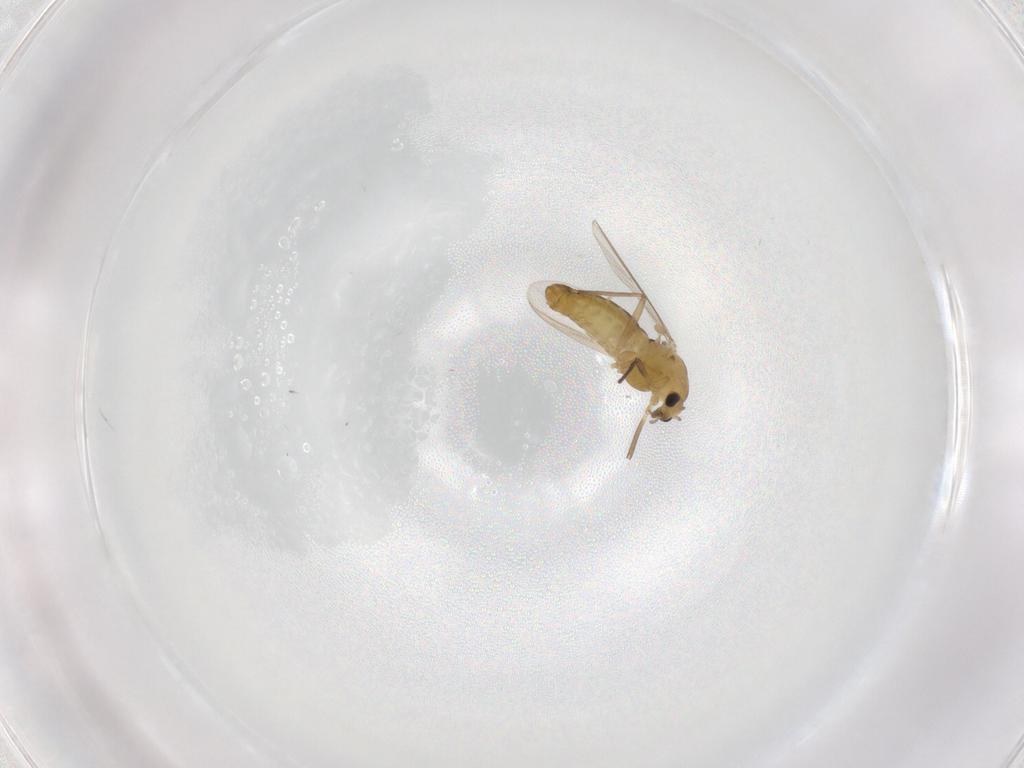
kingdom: Animalia
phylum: Arthropoda
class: Insecta
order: Diptera
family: Chironomidae
